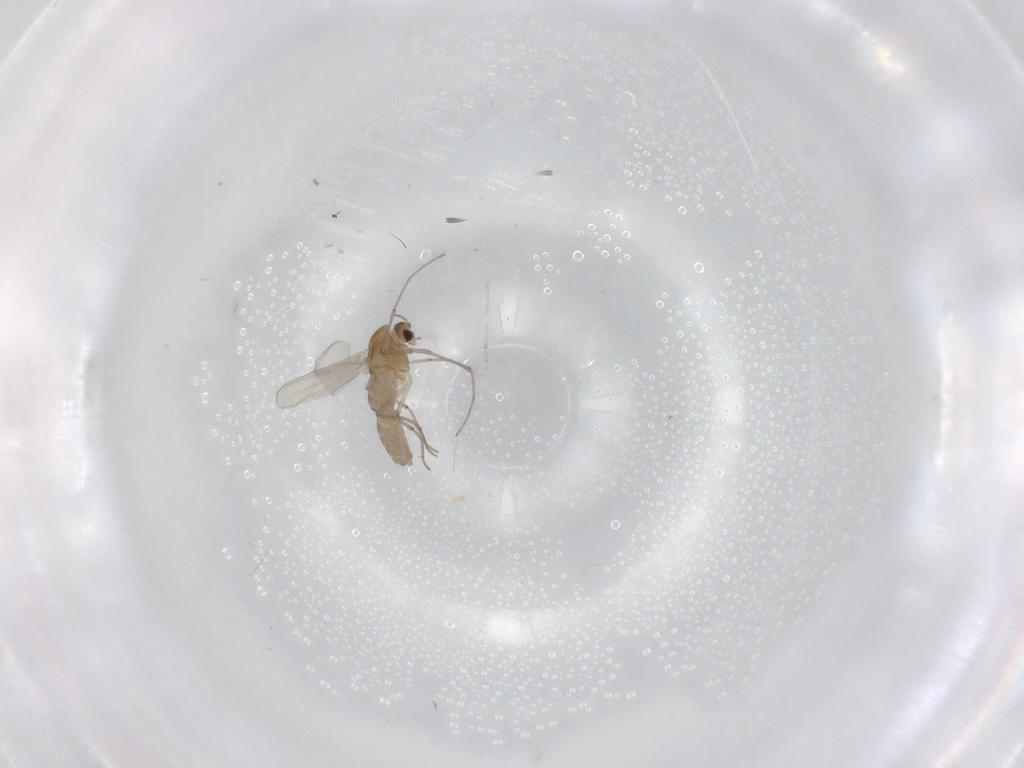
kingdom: Animalia
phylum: Arthropoda
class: Insecta
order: Diptera
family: Chironomidae
